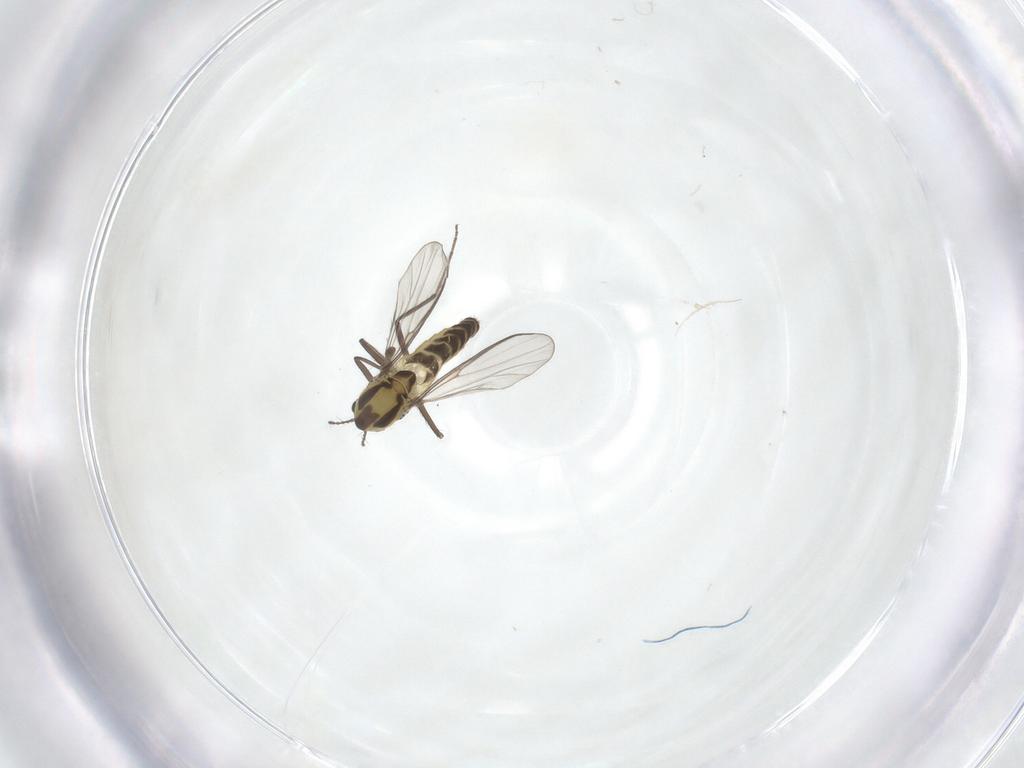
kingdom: Animalia
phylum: Arthropoda
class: Insecta
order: Diptera
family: Chironomidae
